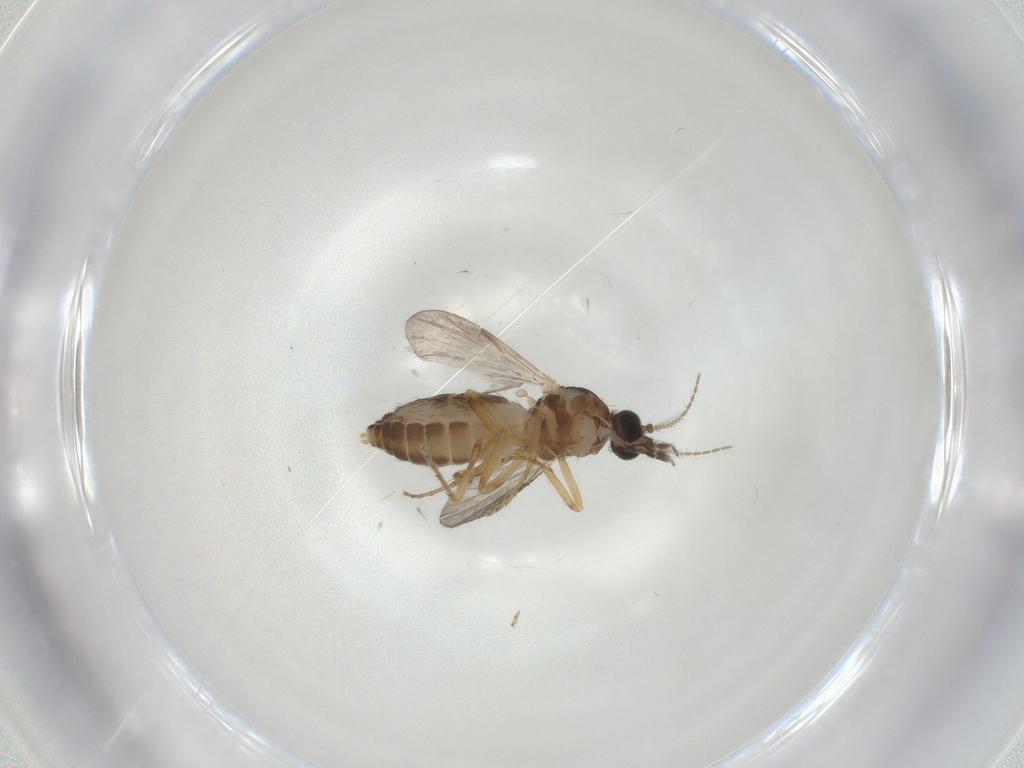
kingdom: Animalia
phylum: Arthropoda
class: Insecta
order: Diptera
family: Ceratopogonidae
